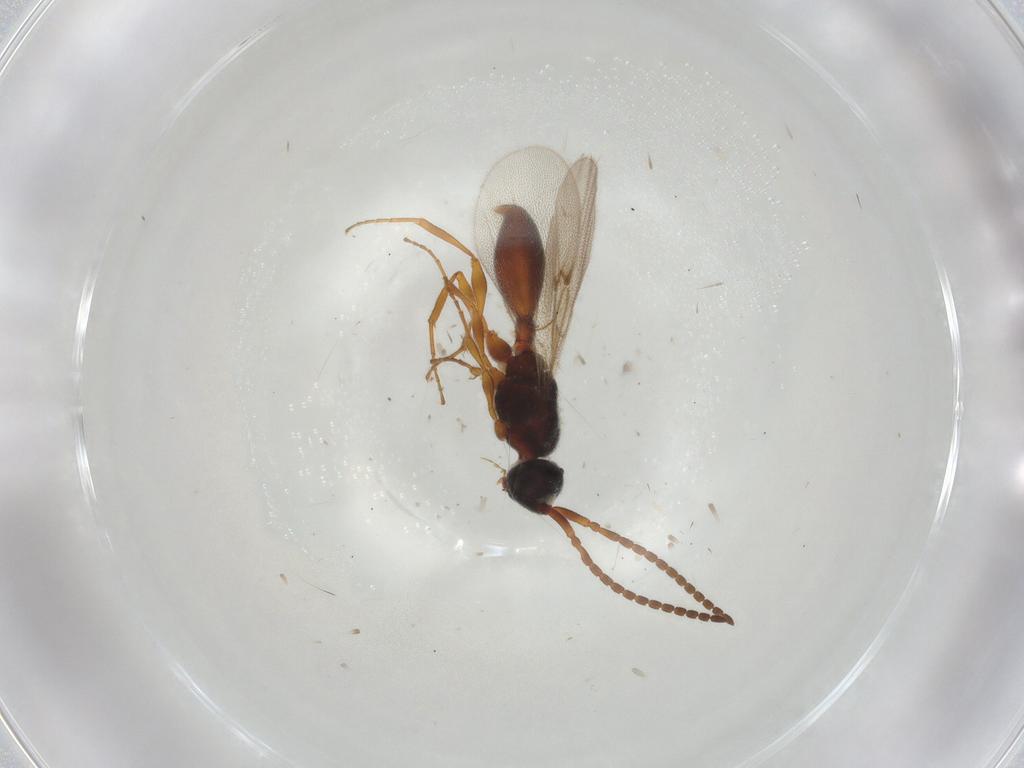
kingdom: Animalia
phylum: Arthropoda
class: Insecta
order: Hymenoptera
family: Diapriidae
